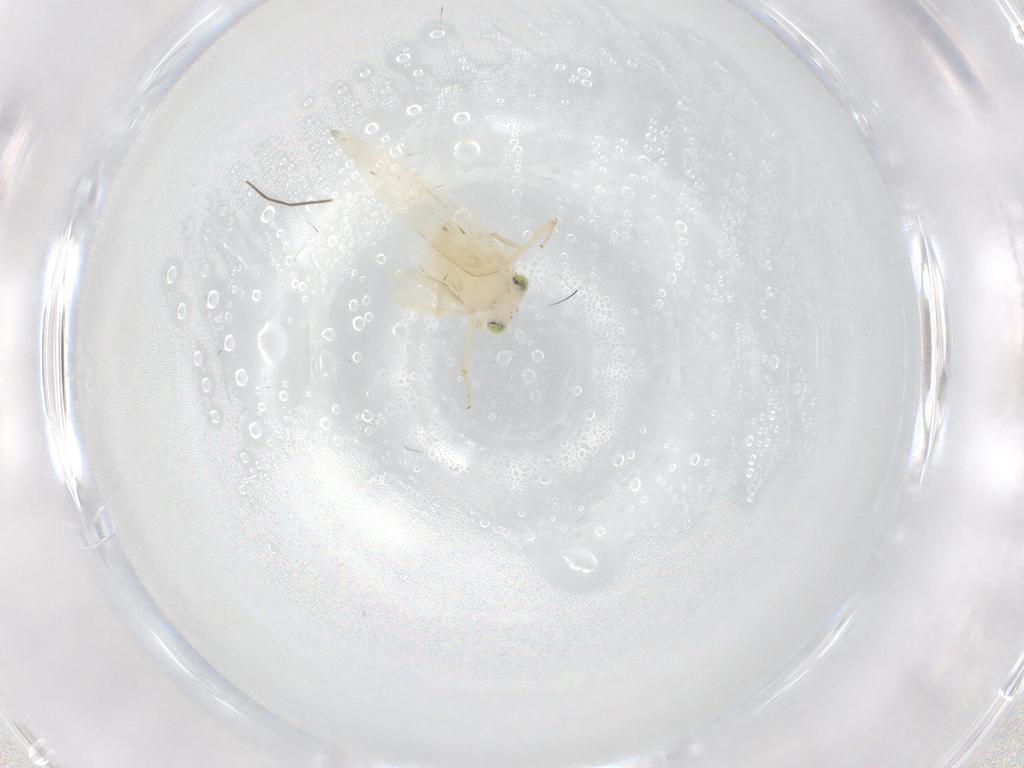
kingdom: Animalia
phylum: Arthropoda
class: Insecta
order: Psocodea
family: Lepidopsocidae
